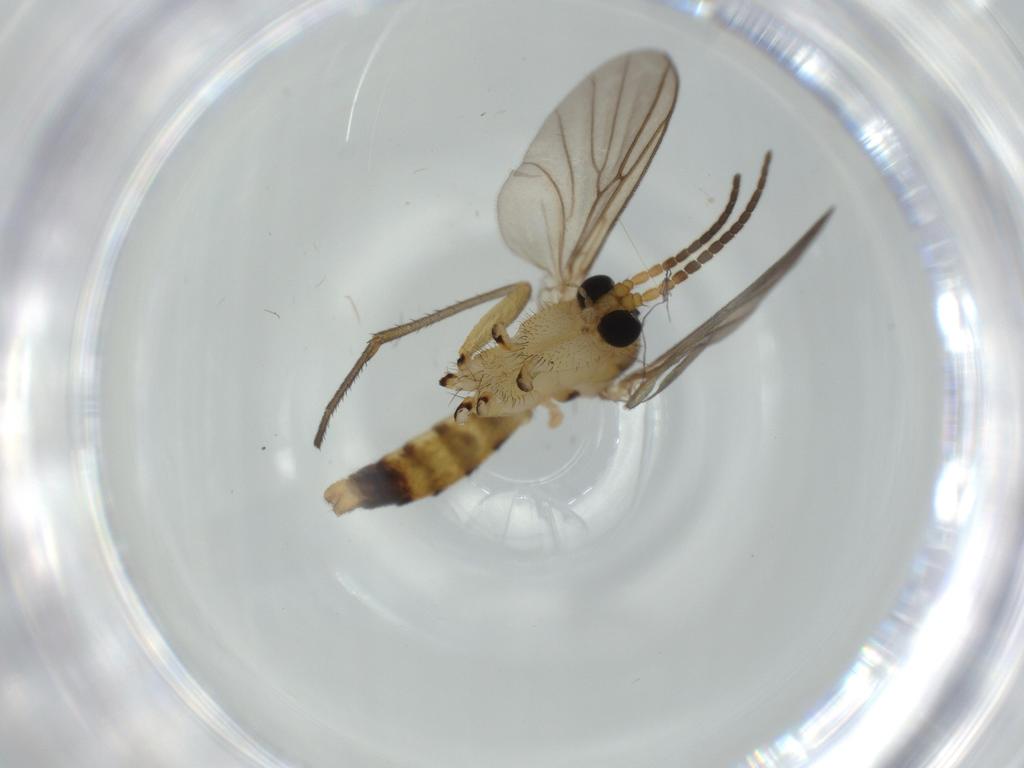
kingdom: Animalia
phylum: Arthropoda
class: Insecta
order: Diptera
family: Mycetophilidae
